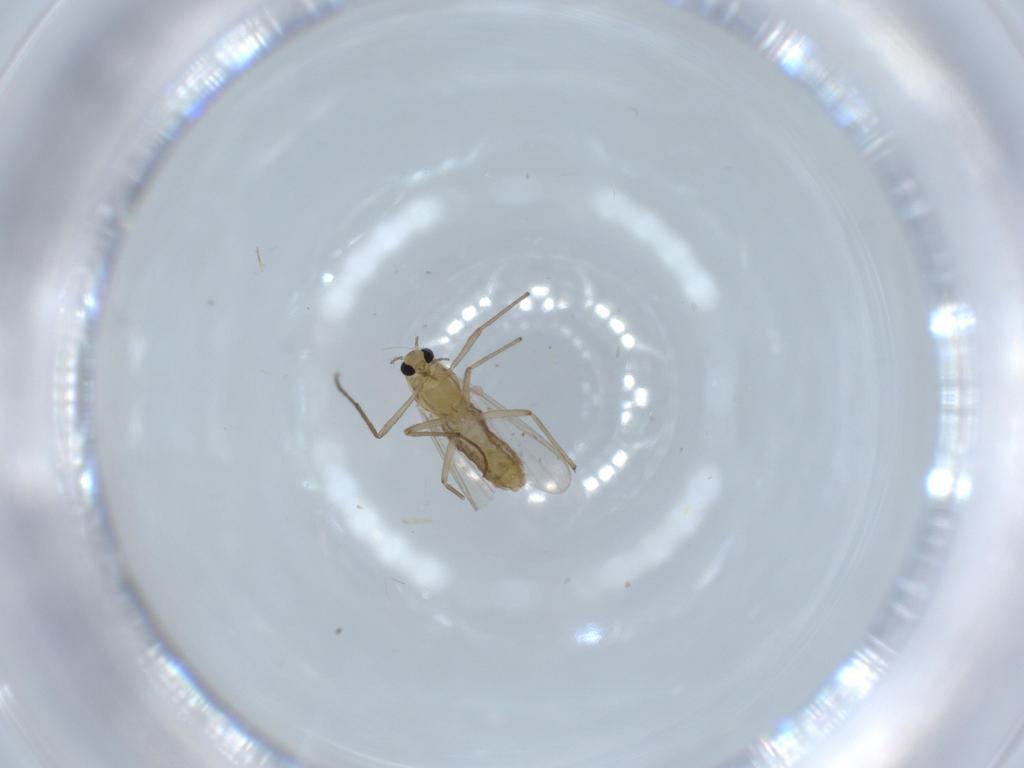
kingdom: Animalia
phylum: Arthropoda
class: Insecta
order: Diptera
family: Chironomidae
